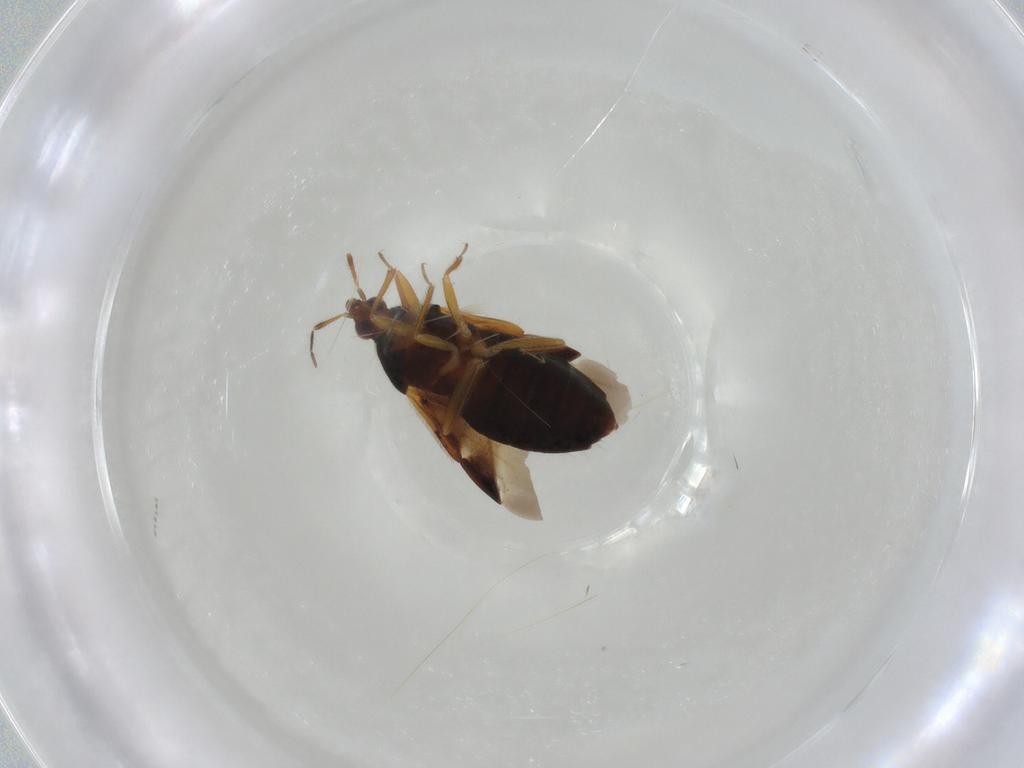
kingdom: Animalia
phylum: Arthropoda
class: Insecta
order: Hemiptera
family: Anthocoridae
